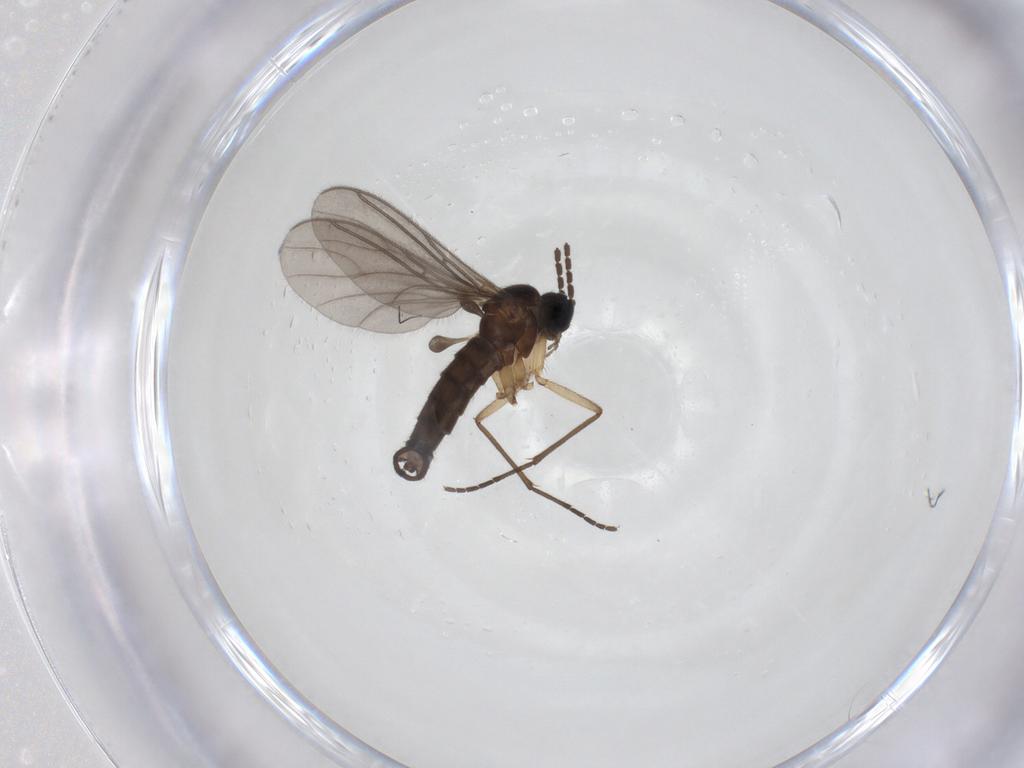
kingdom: Animalia
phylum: Arthropoda
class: Insecta
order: Diptera
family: Sciaridae
